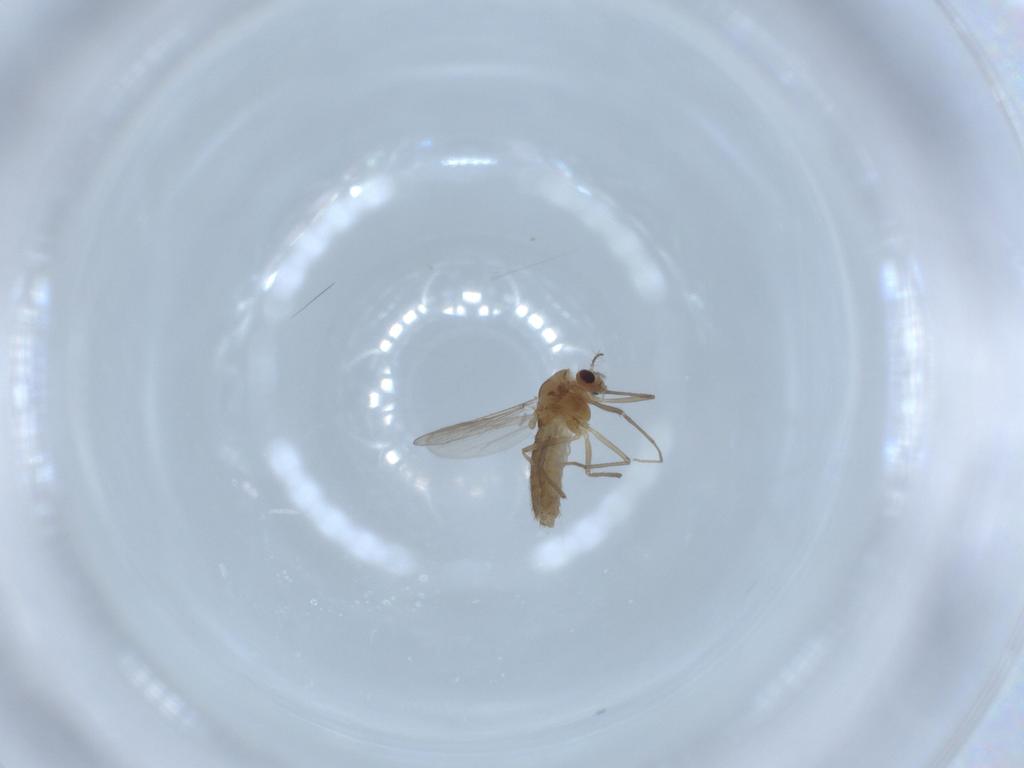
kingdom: Animalia
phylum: Arthropoda
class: Insecta
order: Diptera
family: Chironomidae
